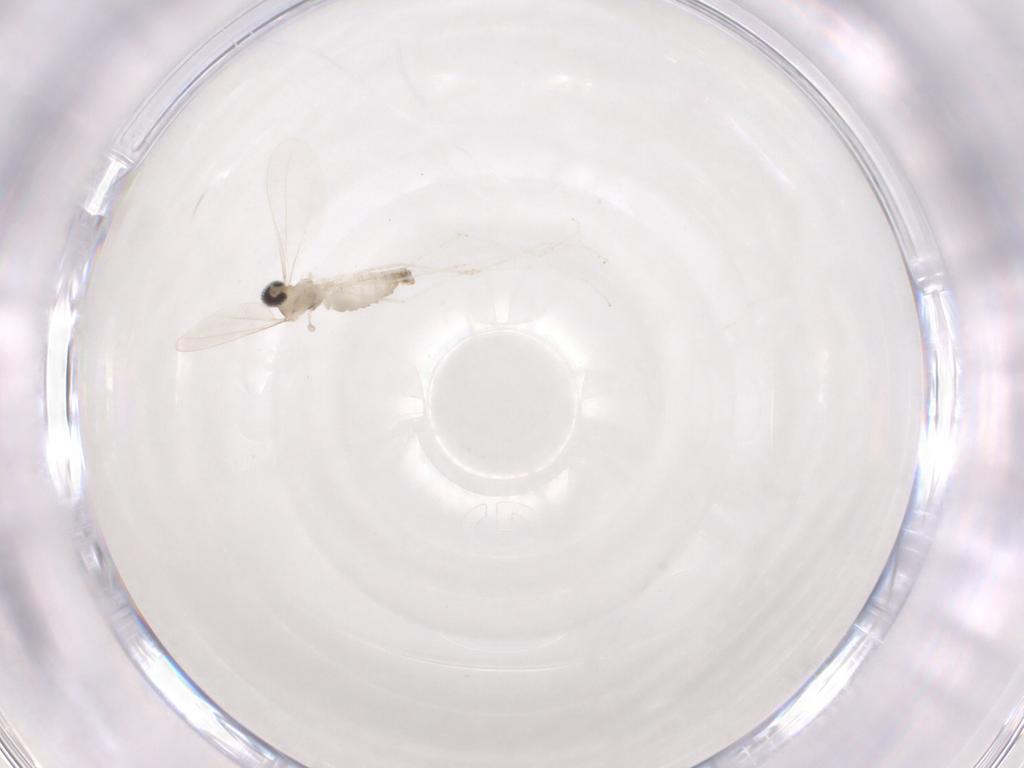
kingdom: Animalia
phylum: Arthropoda
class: Insecta
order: Diptera
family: Cecidomyiidae
